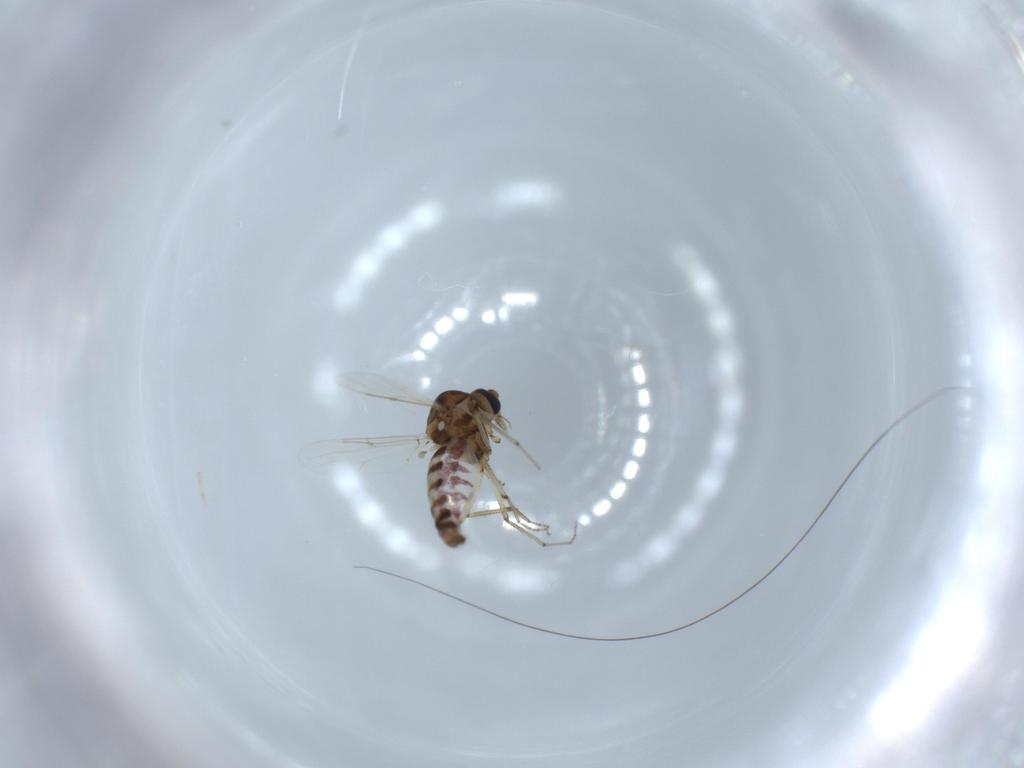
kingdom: Animalia
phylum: Arthropoda
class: Insecta
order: Diptera
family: Ceratopogonidae
